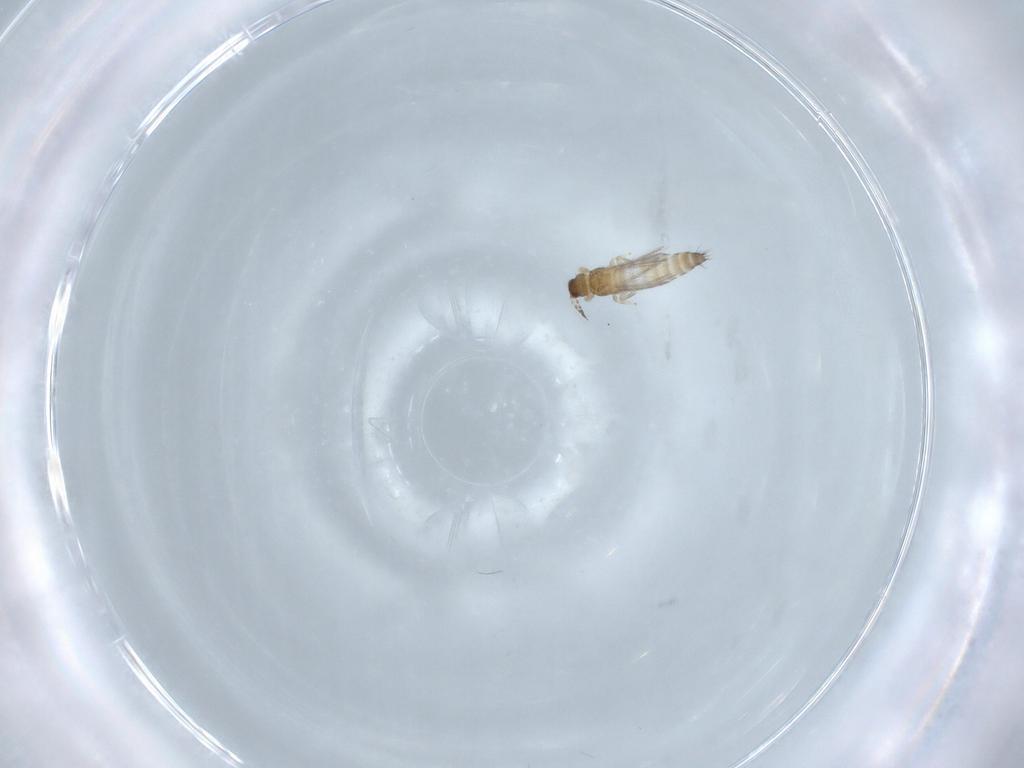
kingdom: Animalia
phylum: Arthropoda
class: Insecta
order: Thysanoptera
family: Thripidae
